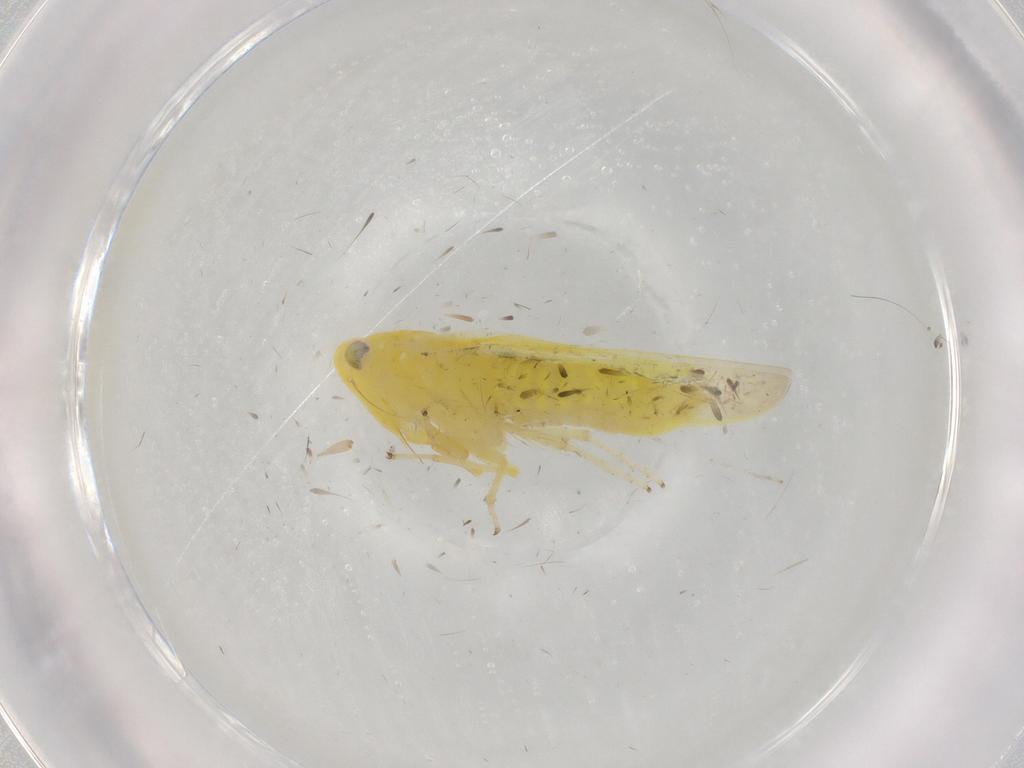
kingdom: Animalia
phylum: Arthropoda
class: Insecta
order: Hemiptera
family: Cicadellidae
